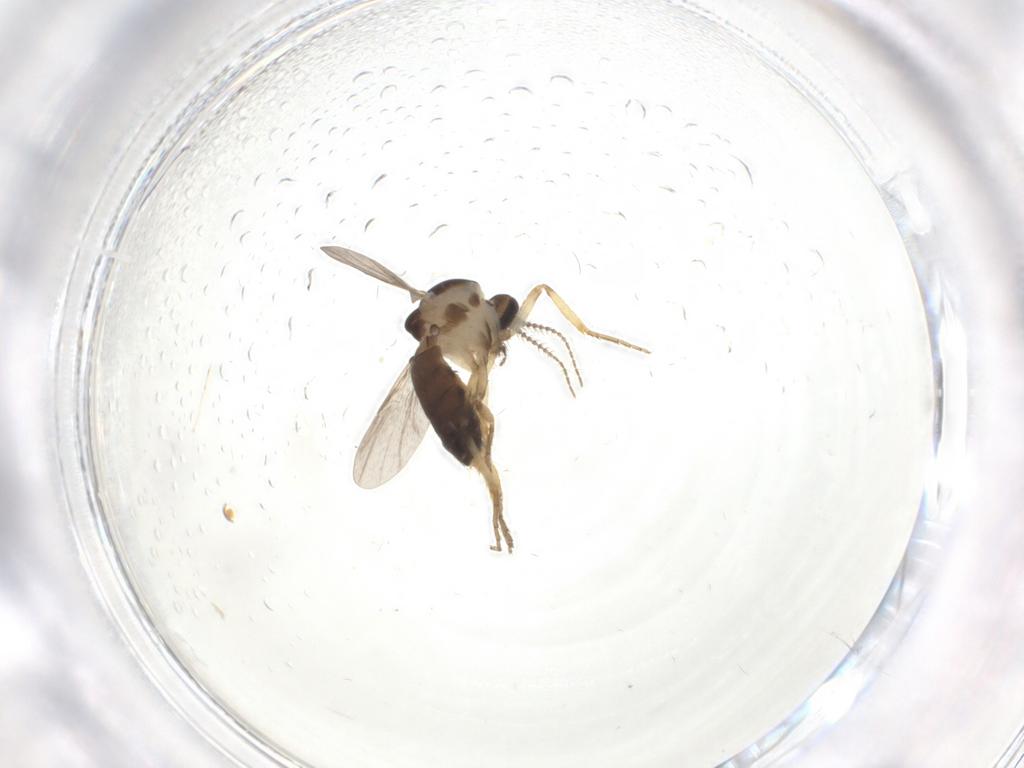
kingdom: Animalia
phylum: Arthropoda
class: Insecta
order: Diptera
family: Ceratopogonidae
